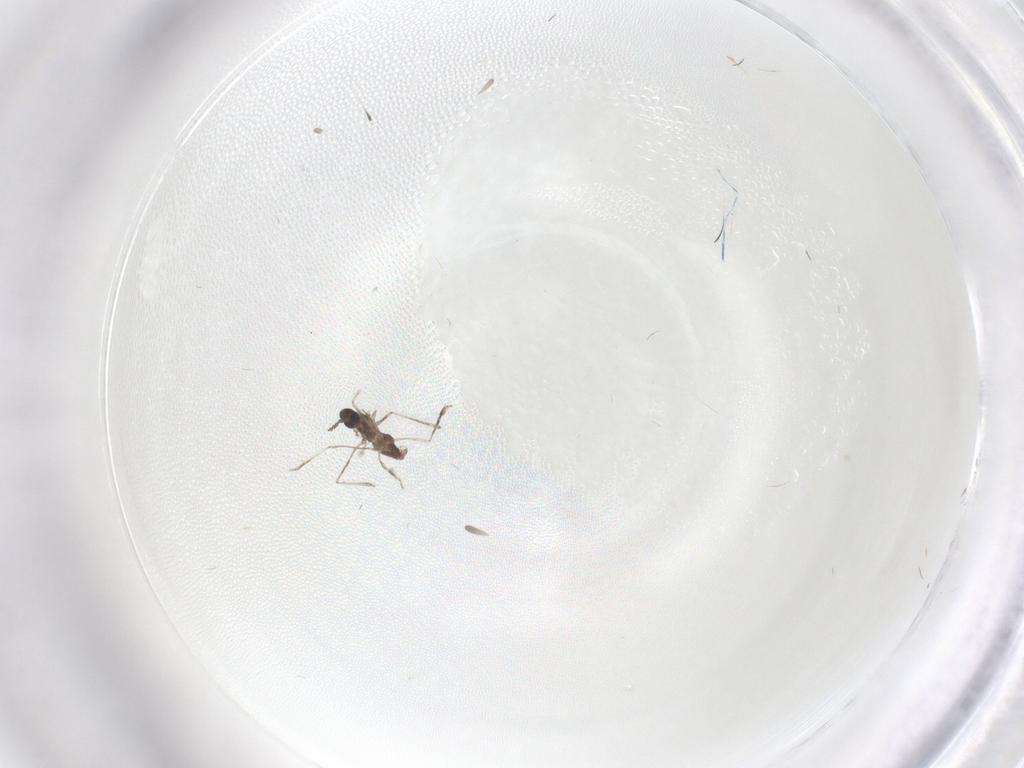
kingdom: Animalia
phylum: Arthropoda
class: Insecta
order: Diptera
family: Cecidomyiidae
